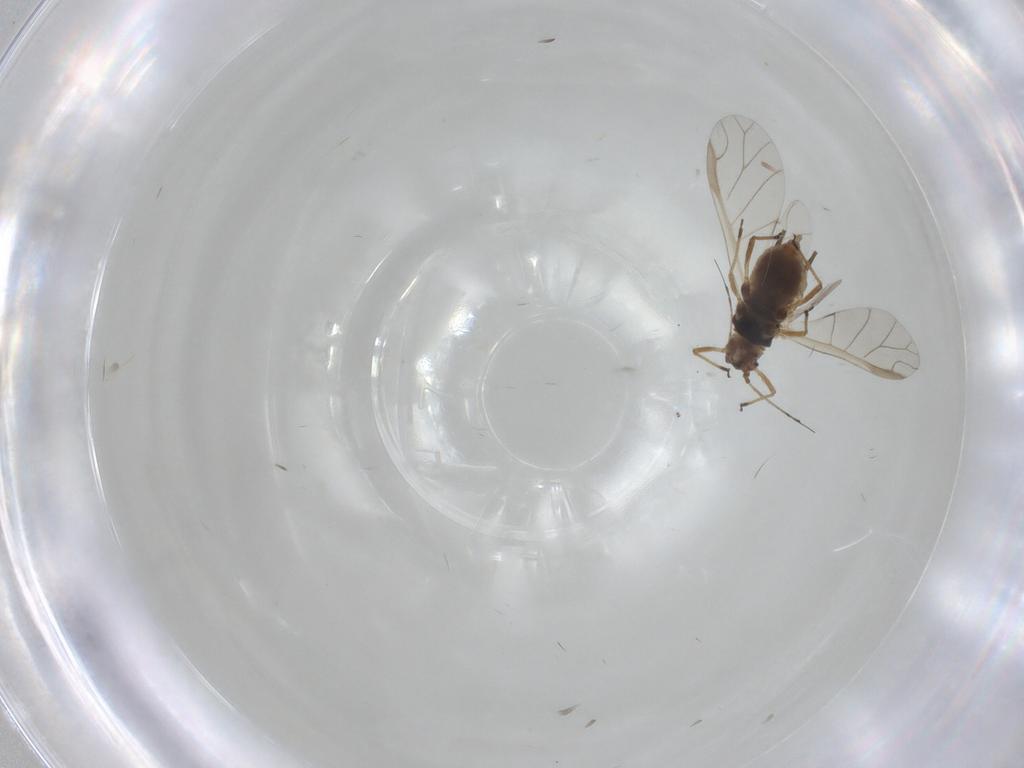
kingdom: Animalia
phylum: Arthropoda
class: Insecta
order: Hemiptera
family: Aphididae
